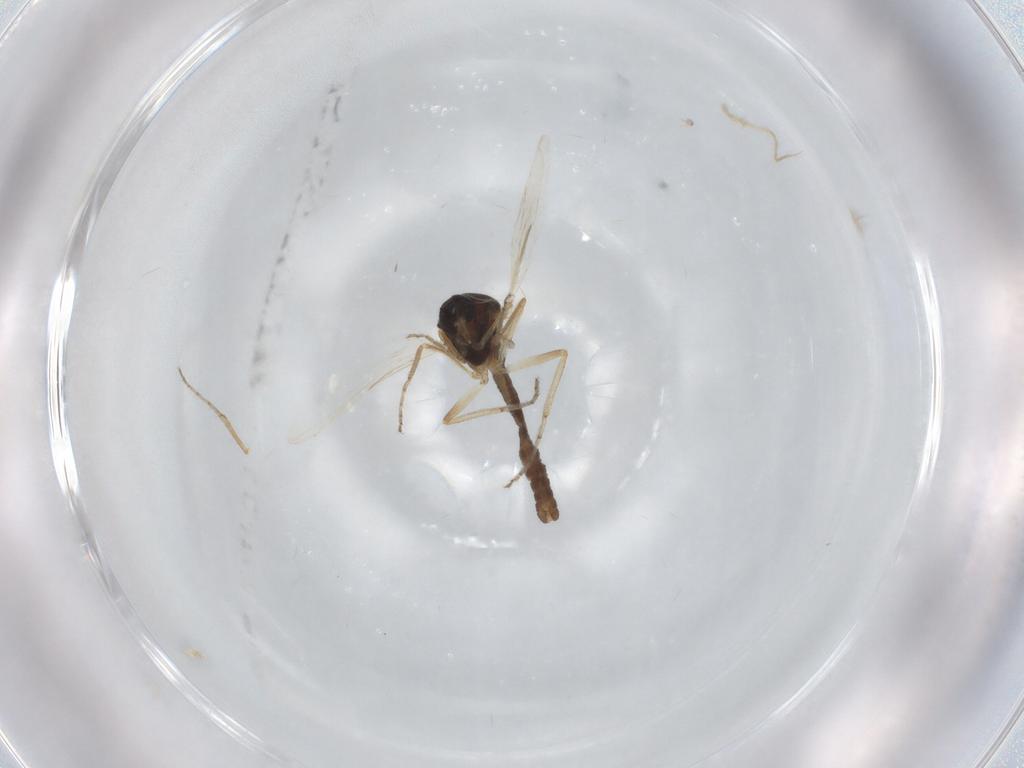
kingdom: Animalia
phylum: Arthropoda
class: Insecta
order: Diptera
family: Ceratopogonidae
